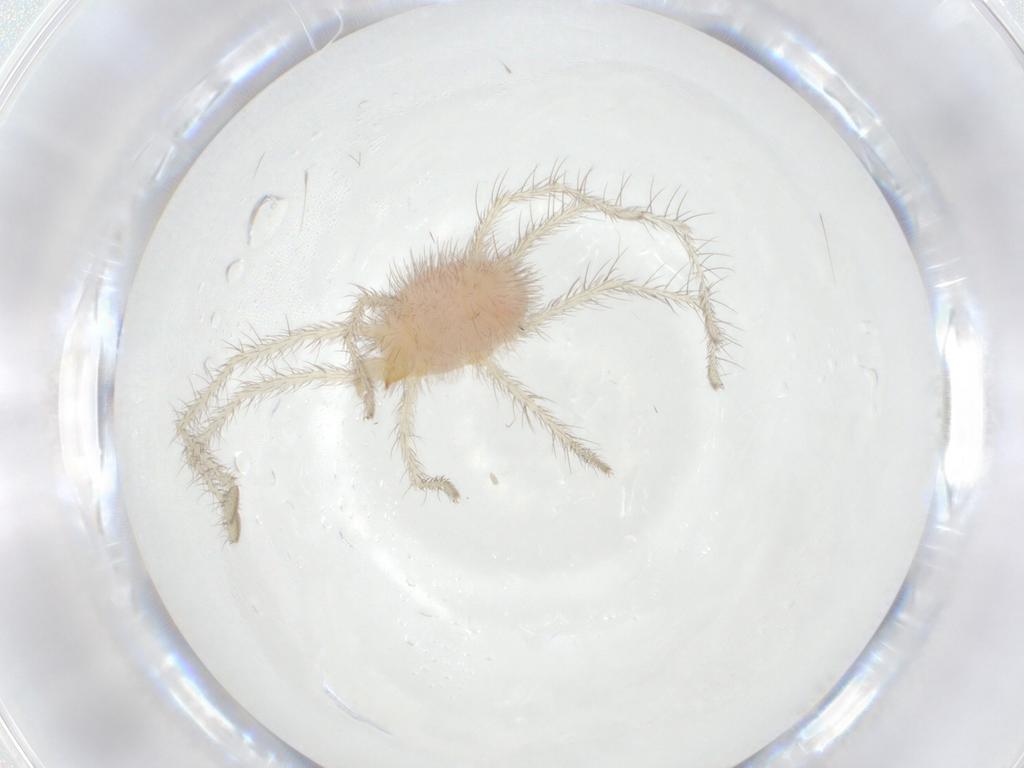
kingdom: Animalia
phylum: Arthropoda
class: Arachnida
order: Trombidiformes
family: Erythraeidae
